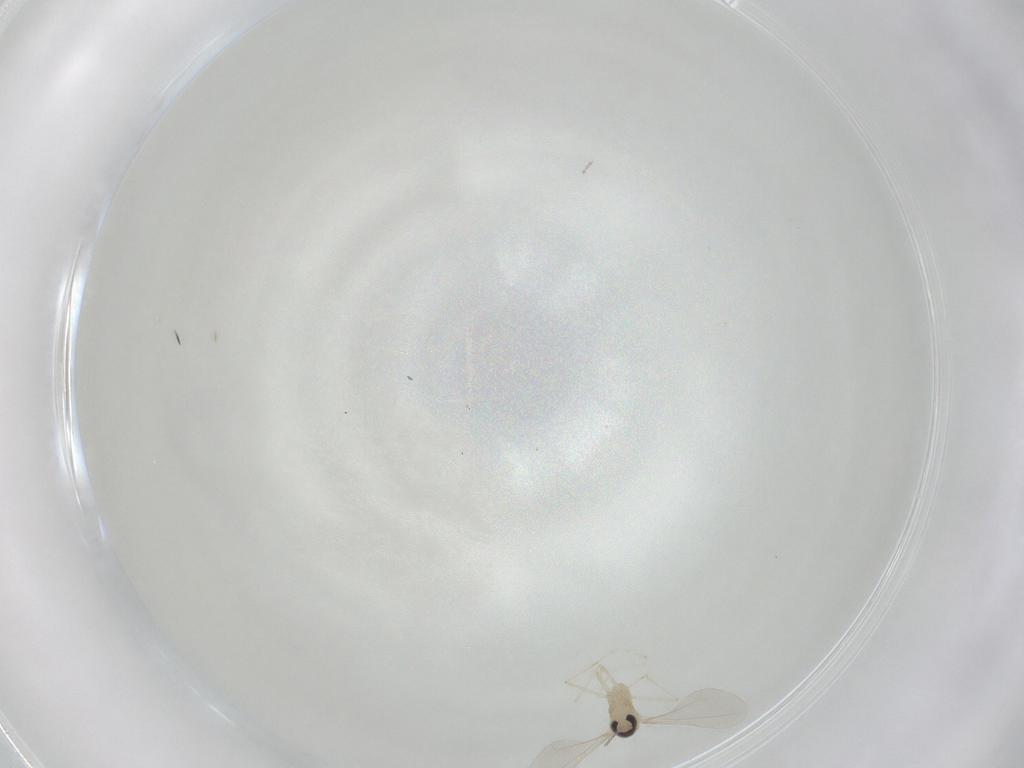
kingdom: Animalia
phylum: Arthropoda
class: Insecta
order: Diptera
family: Cecidomyiidae
